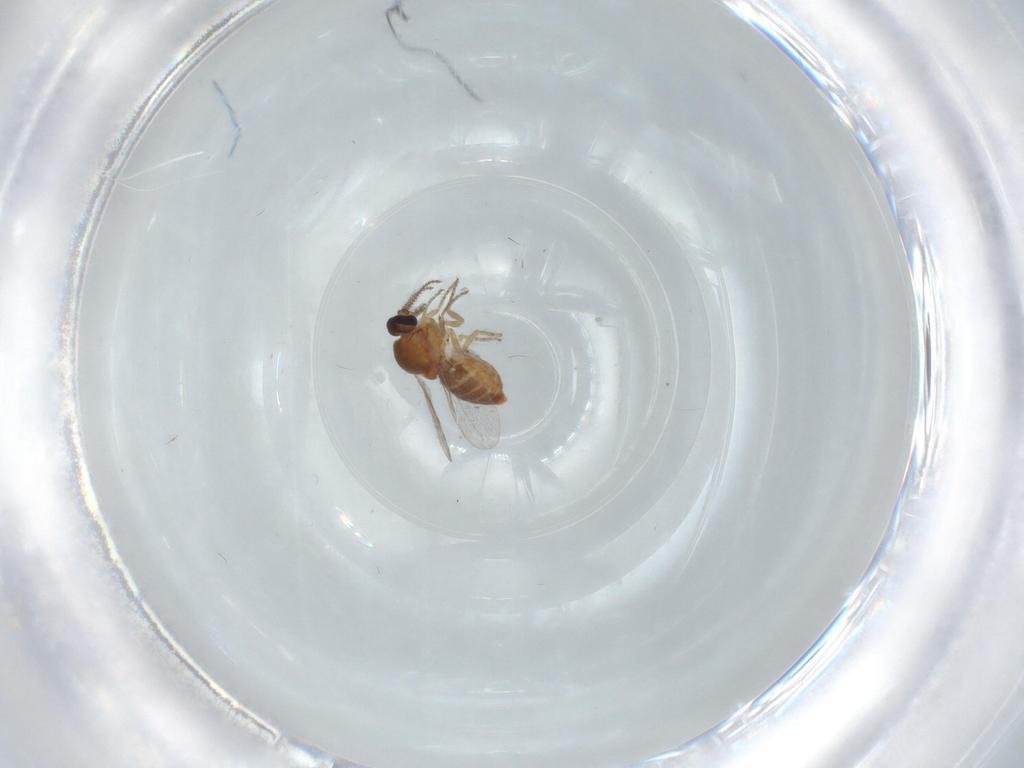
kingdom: Animalia
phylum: Arthropoda
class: Insecta
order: Diptera
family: Ceratopogonidae
